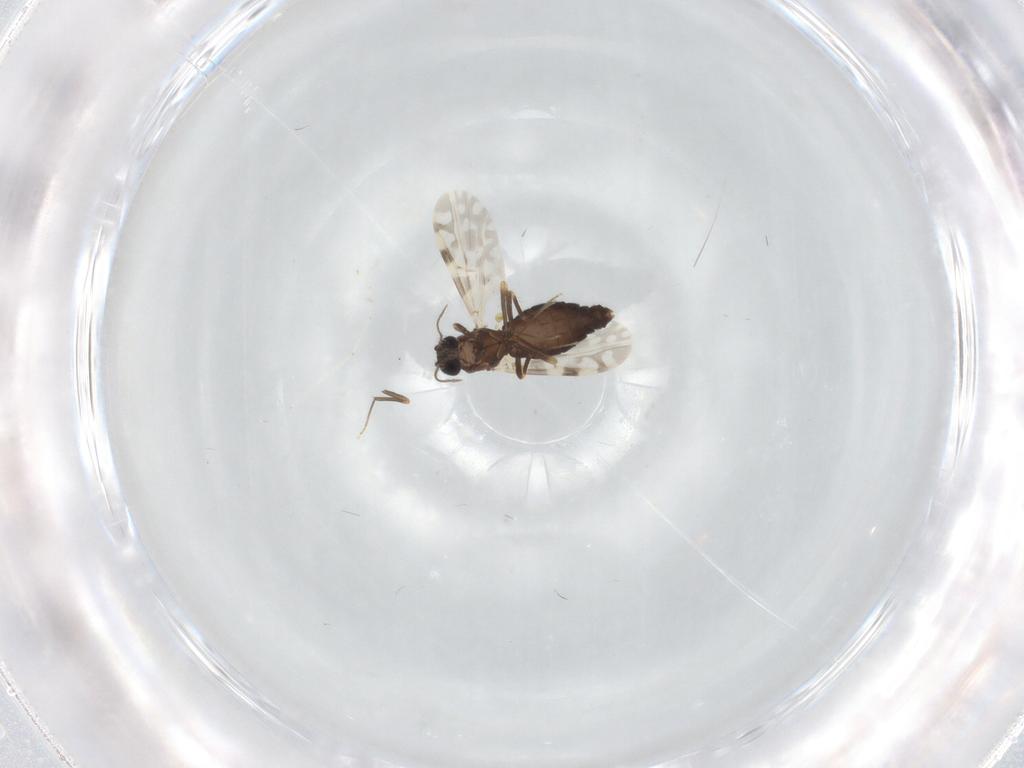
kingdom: Animalia
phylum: Arthropoda
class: Insecta
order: Diptera
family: Ceratopogonidae
